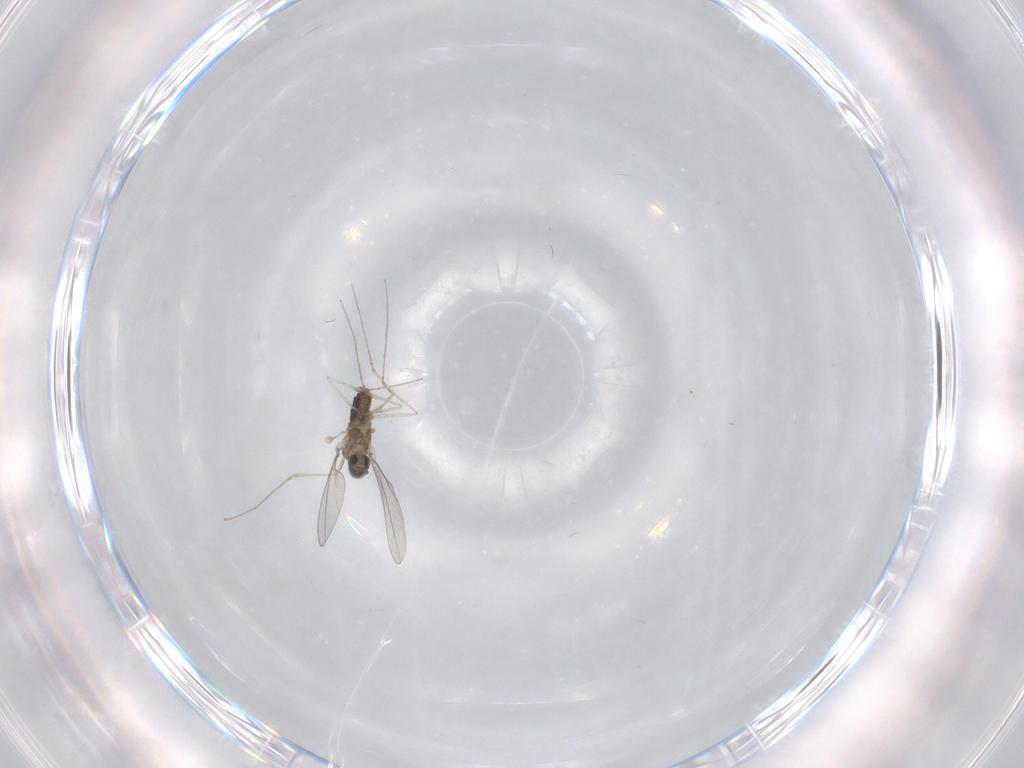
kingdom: Animalia
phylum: Arthropoda
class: Insecta
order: Diptera
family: Cecidomyiidae
